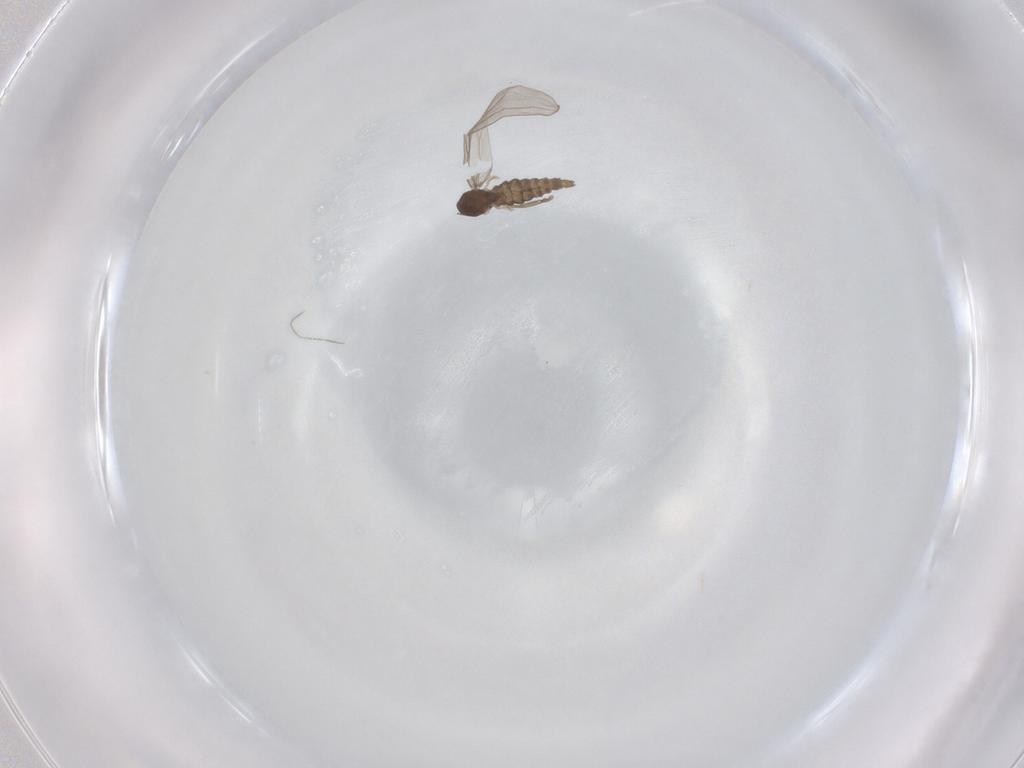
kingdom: Animalia
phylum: Arthropoda
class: Insecta
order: Diptera
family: Cecidomyiidae
